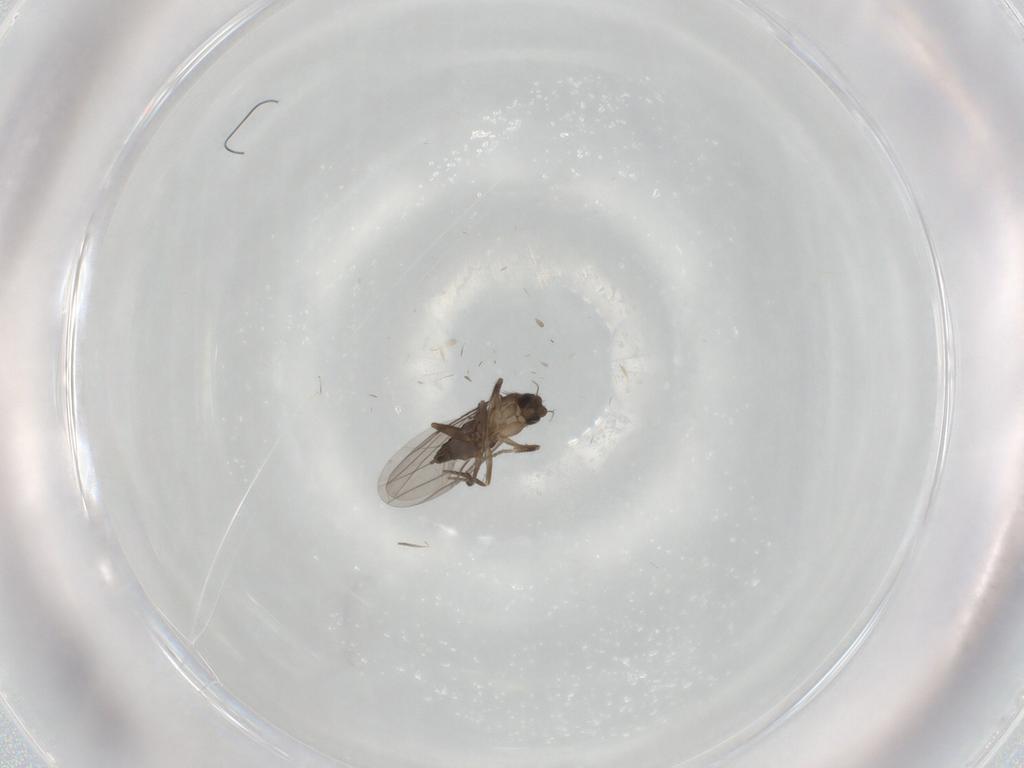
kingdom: Animalia
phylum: Arthropoda
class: Insecta
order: Diptera
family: Phoridae
